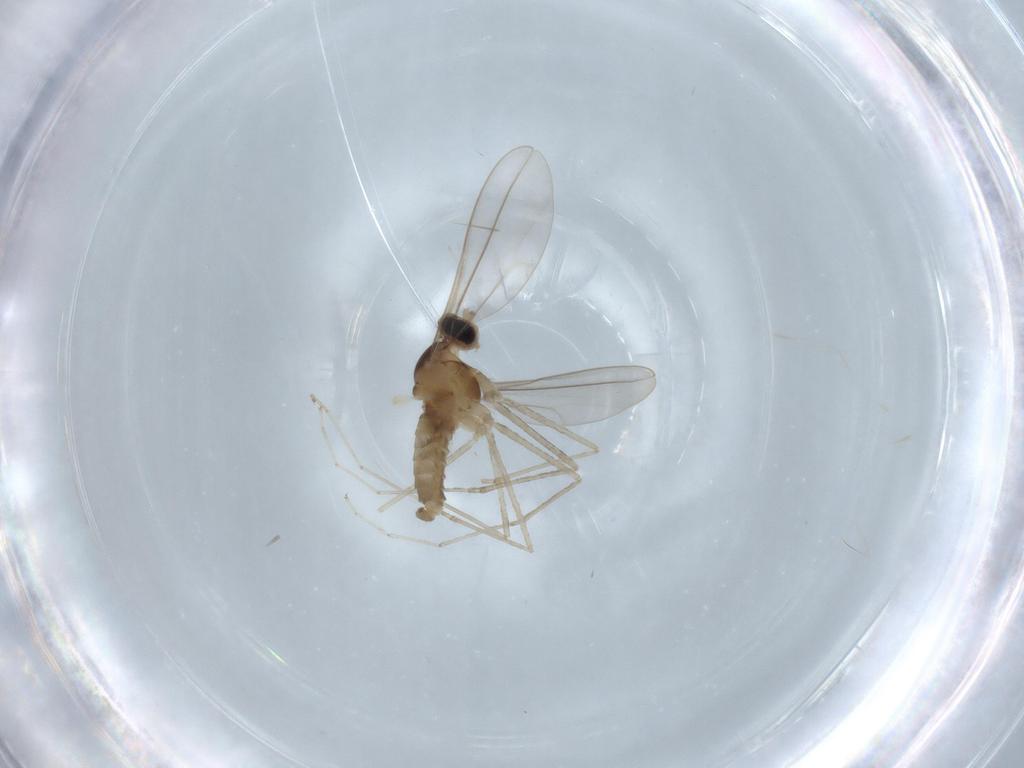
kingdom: Animalia
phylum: Arthropoda
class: Insecta
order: Diptera
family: Cecidomyiidae
